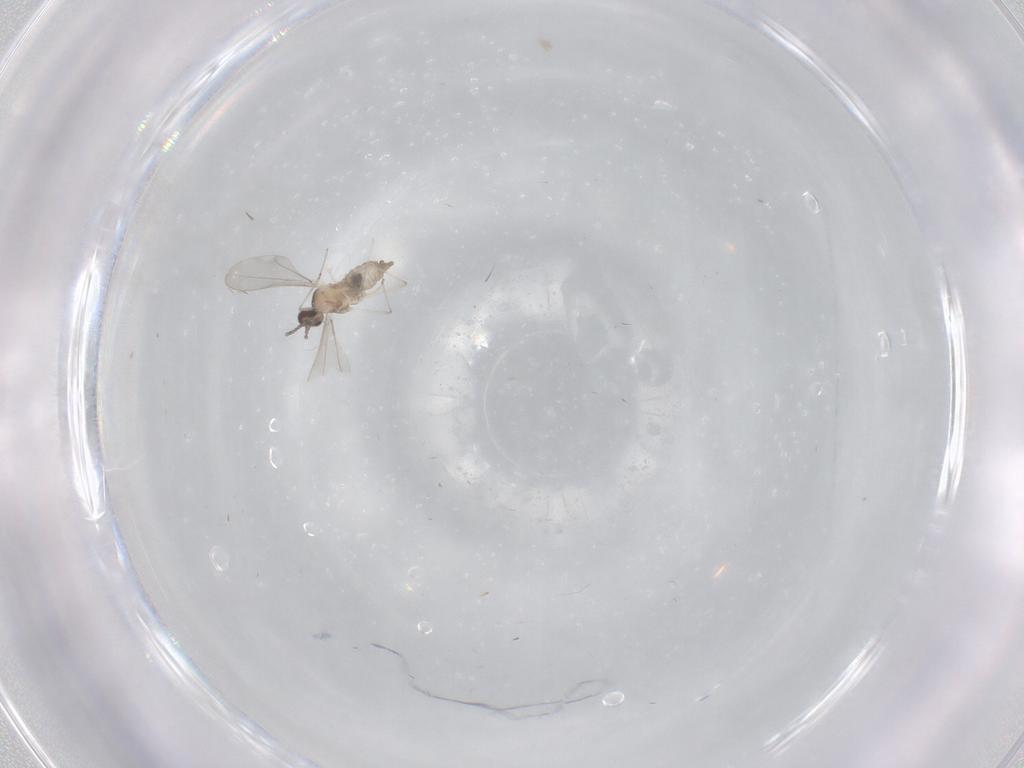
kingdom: Animalia
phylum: Arthropoda
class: Insecta
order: Diptera
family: Cecidomyiidae
